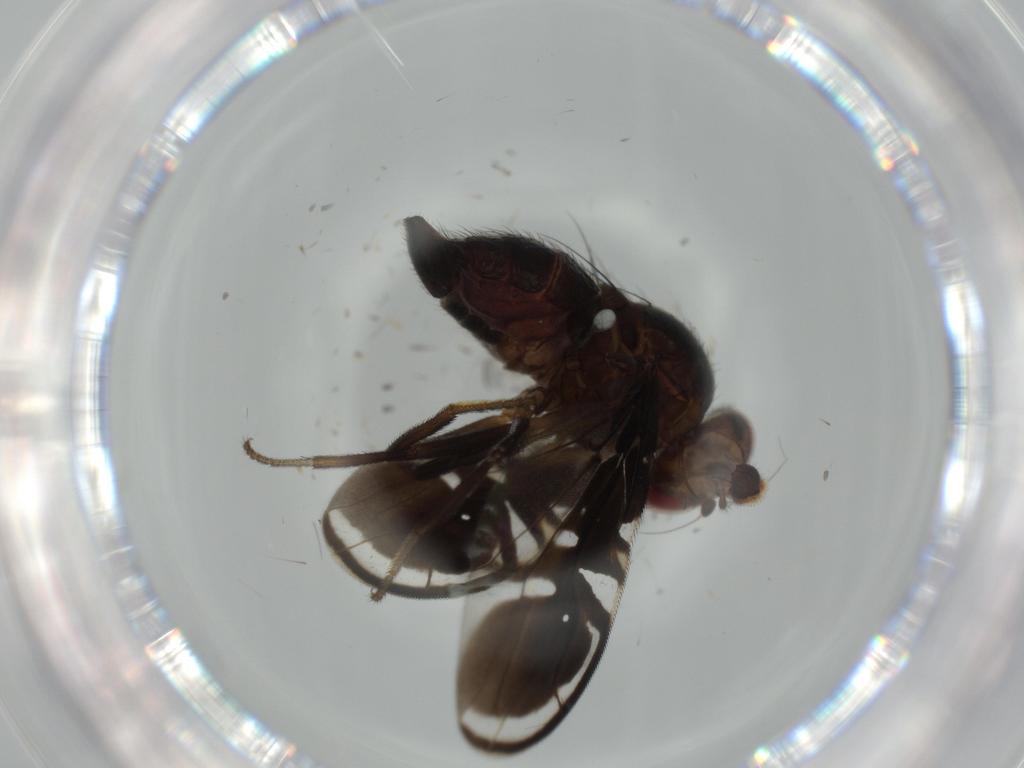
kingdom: Animalia
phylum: Arthropoda
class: Insecta
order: Diptera
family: Tephritidae
